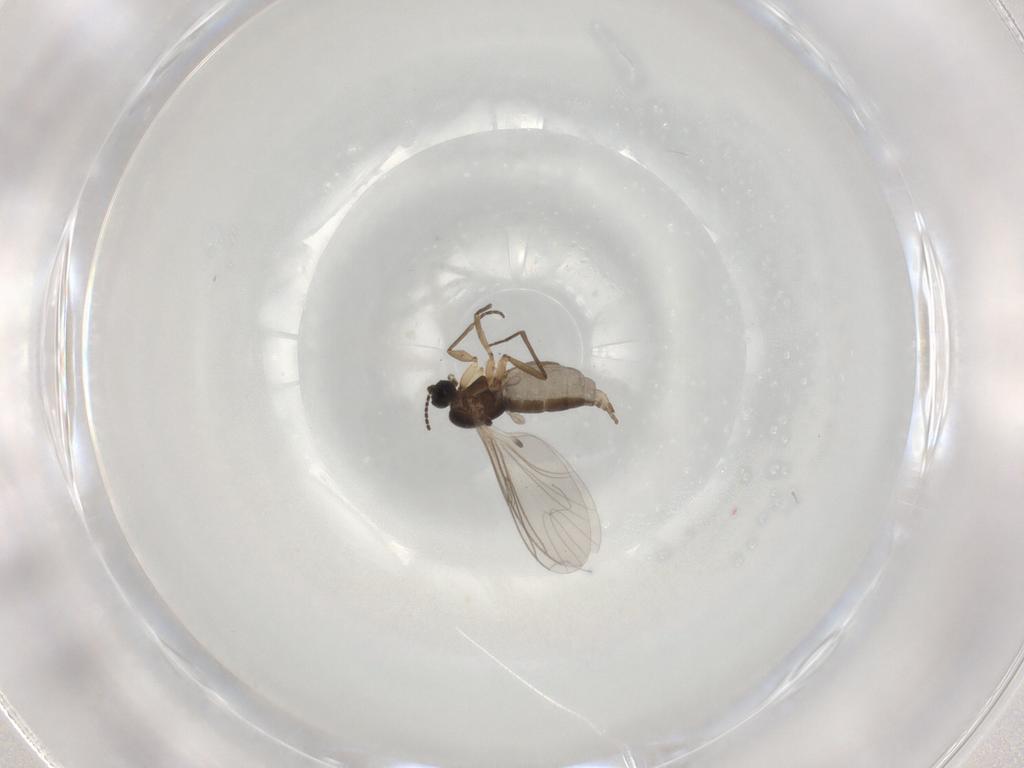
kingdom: Animalia
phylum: Arthropoda
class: Insecta
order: Diptera
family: Sciaridae
